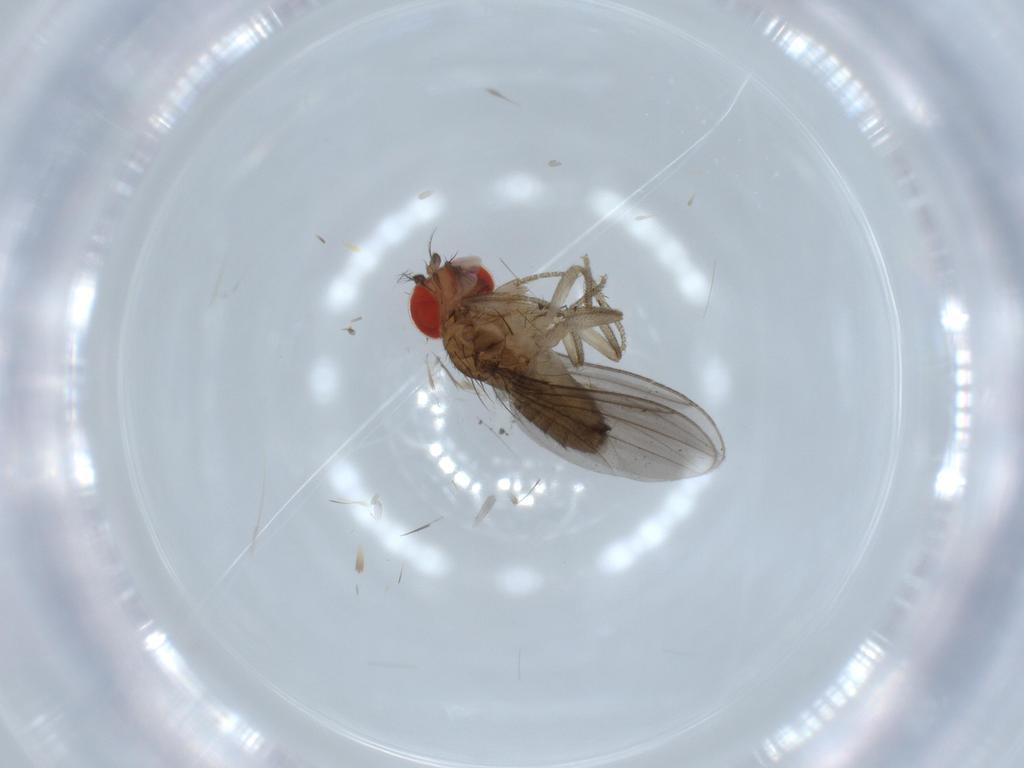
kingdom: Animalia
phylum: Arthropoda
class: Insecta
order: Diptera
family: Drosophilidae
